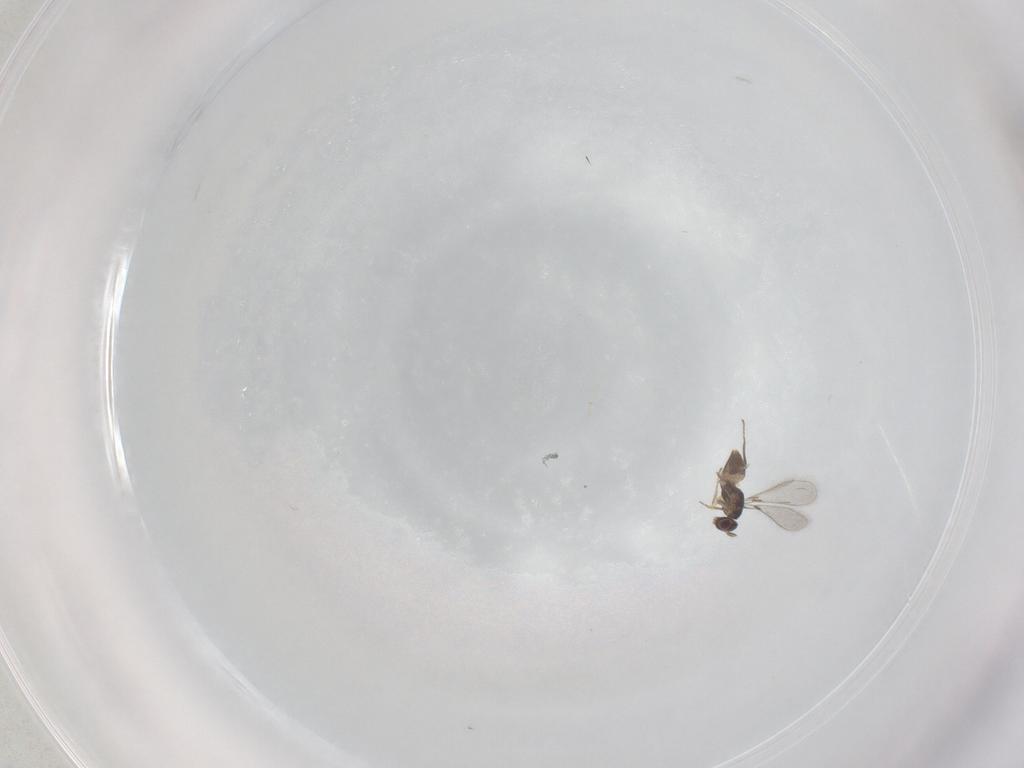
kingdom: Animalia
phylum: Arthropoda
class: Insecta
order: Hymenoptera
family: Mymaridae
